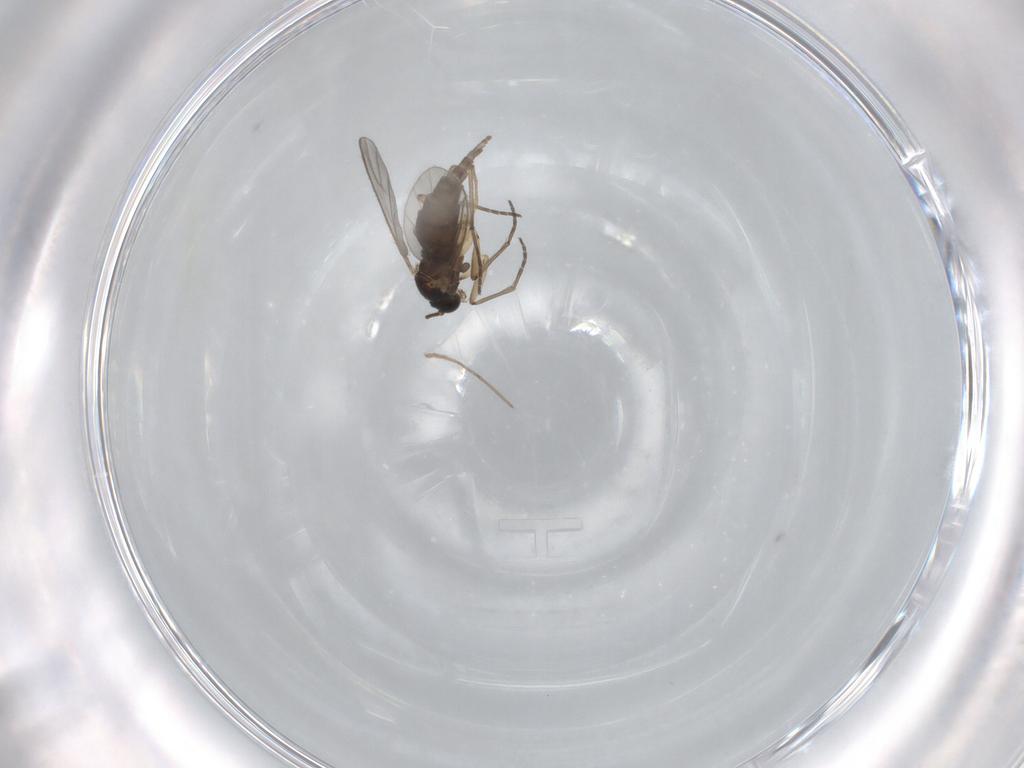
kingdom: Animalia
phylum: Arthropoda
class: Insecta
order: Diptera
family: Sciaridae
